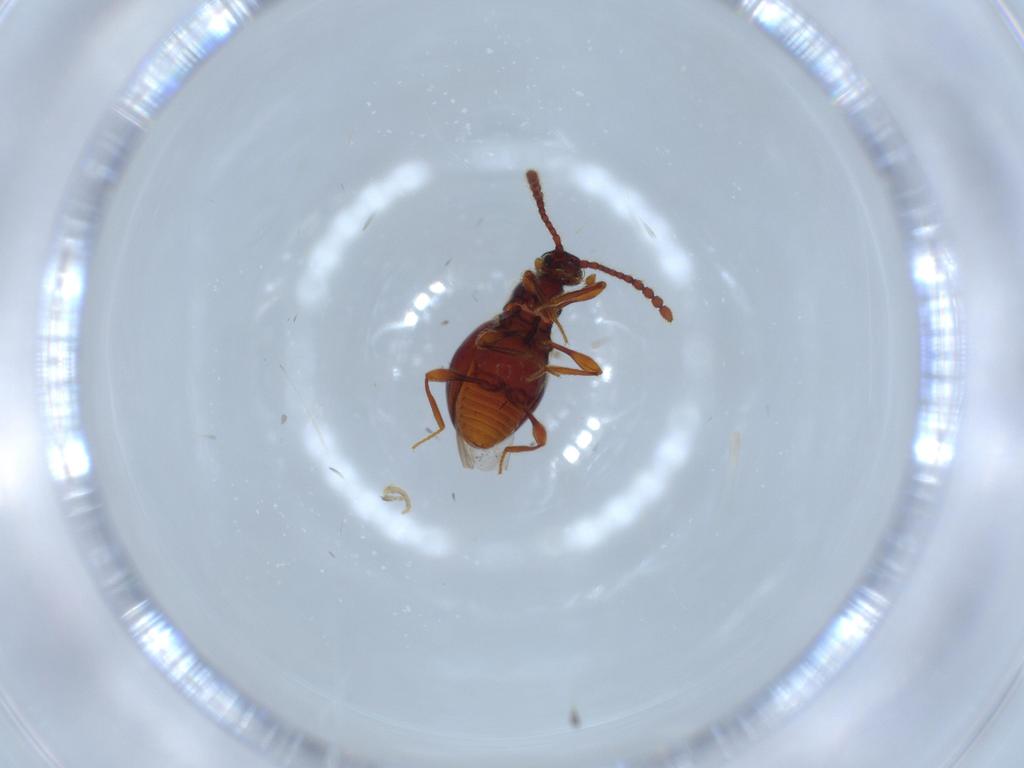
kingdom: Animalia
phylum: Arthropoda
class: Insecta
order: Coleoptera
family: Staphylinidae
